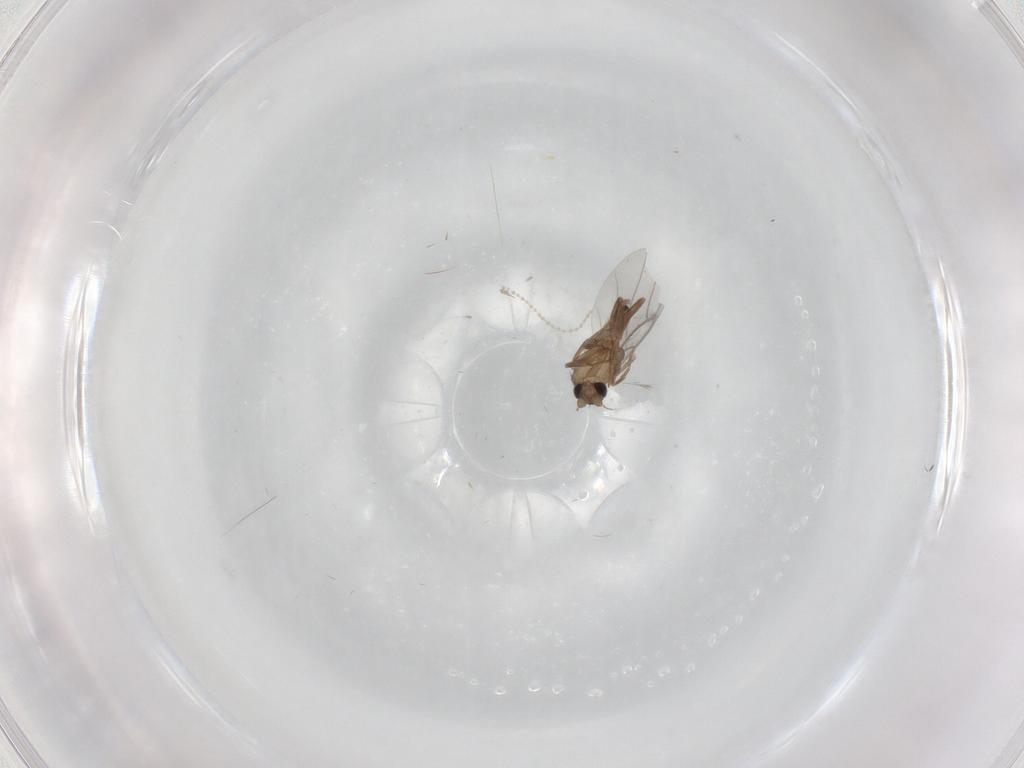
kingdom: Animalia
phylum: Arthropoda
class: Insecta
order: Diptera
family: Cecidomyiidae
